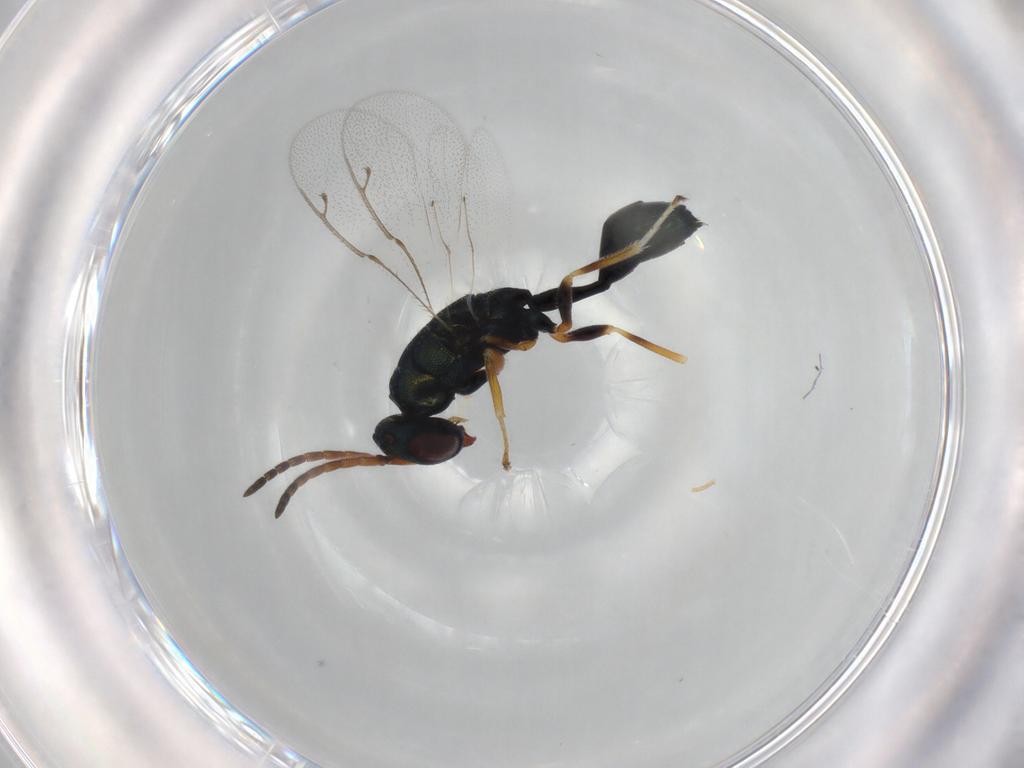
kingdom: Animalia
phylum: Arthropoda
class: Insecta
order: Hymenoptera
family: Pteromalidae
